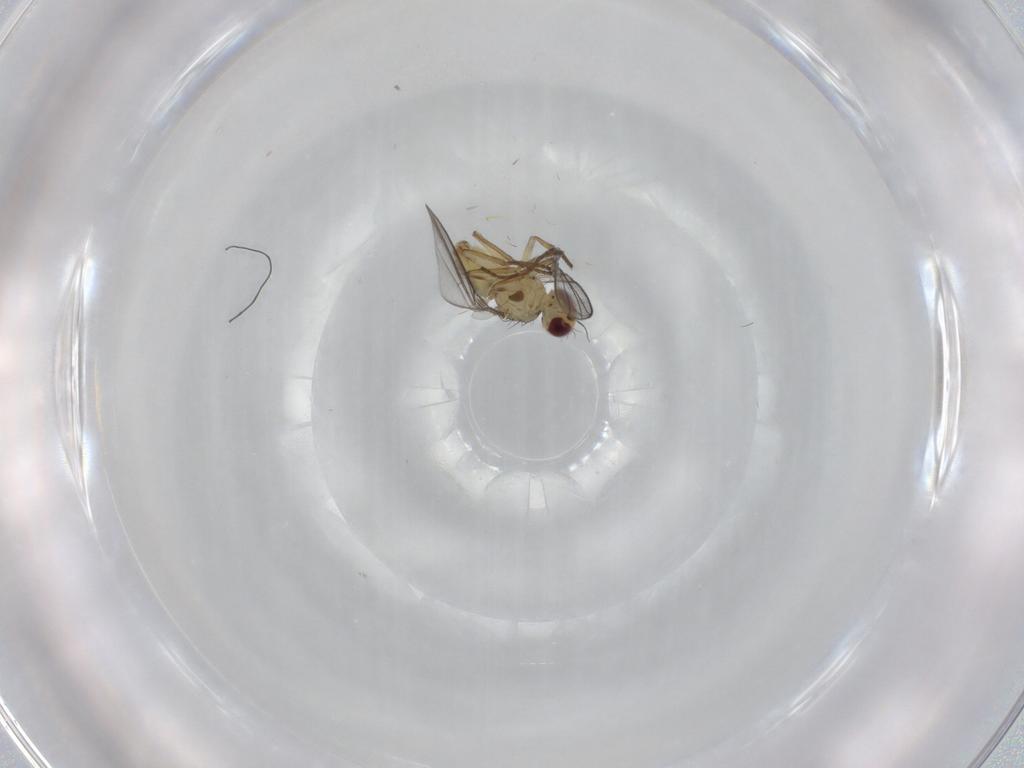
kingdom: Animalia
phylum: Arthropoda
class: Insecta
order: Diptera
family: Agromyzidae
